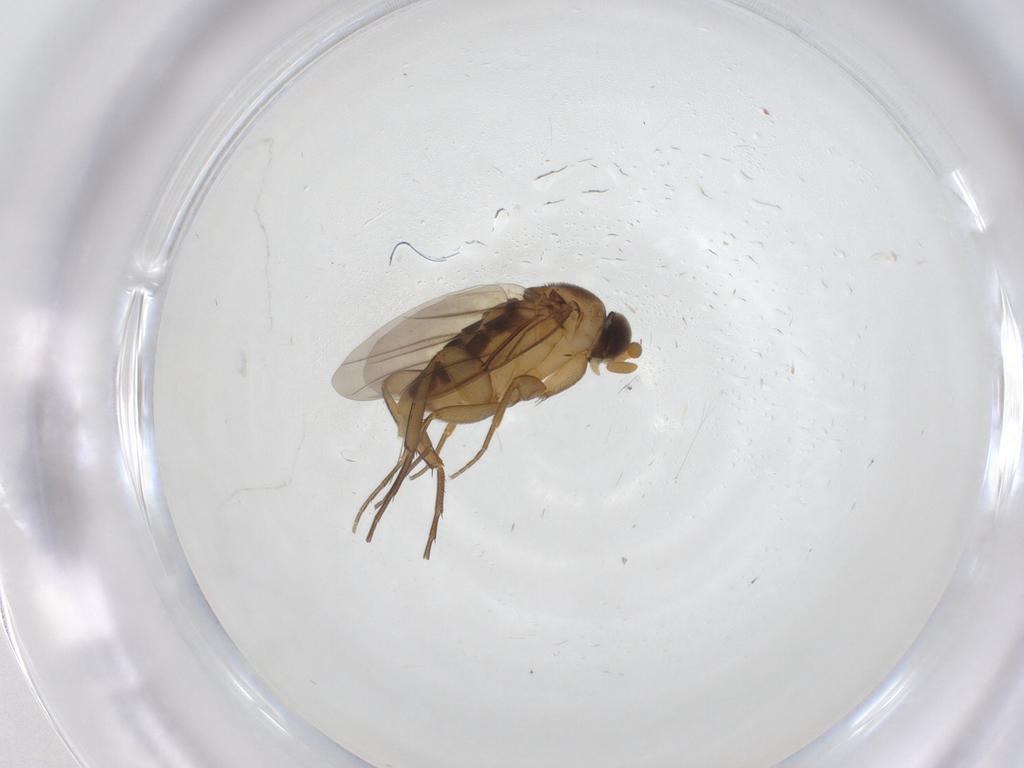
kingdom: Animalia
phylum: Arthropoda
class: Insecta
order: Diptera
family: Phoridae
